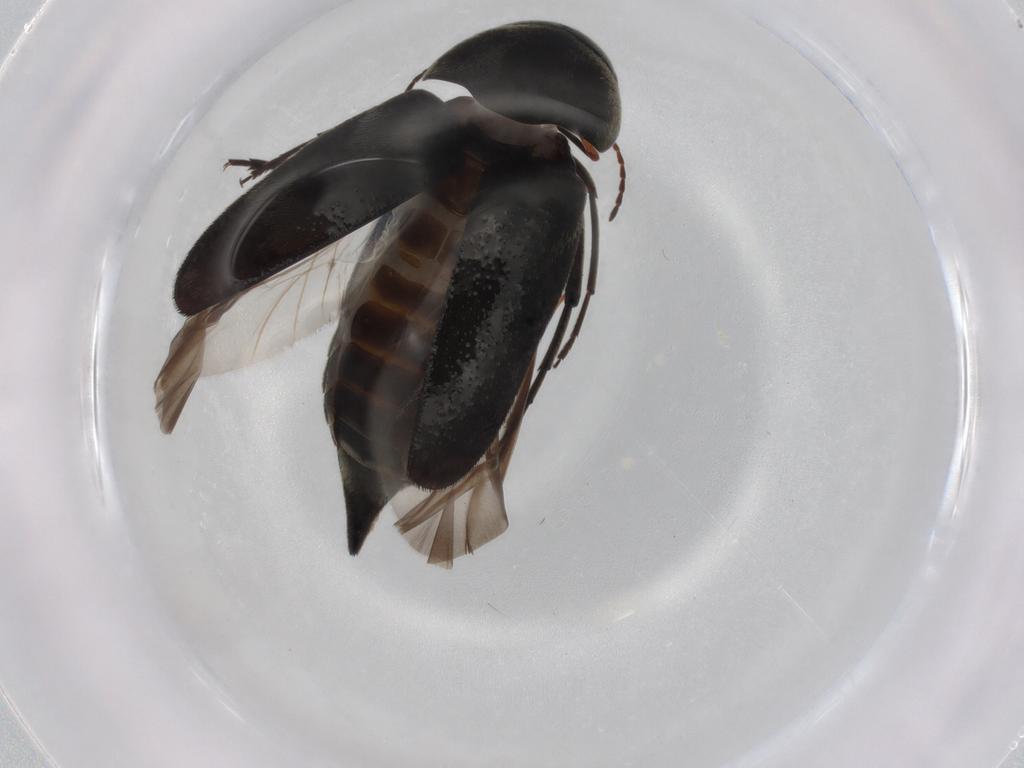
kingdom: Animalia
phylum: Arthropoda
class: Insecta
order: Coleoptera
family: Mordellidae
